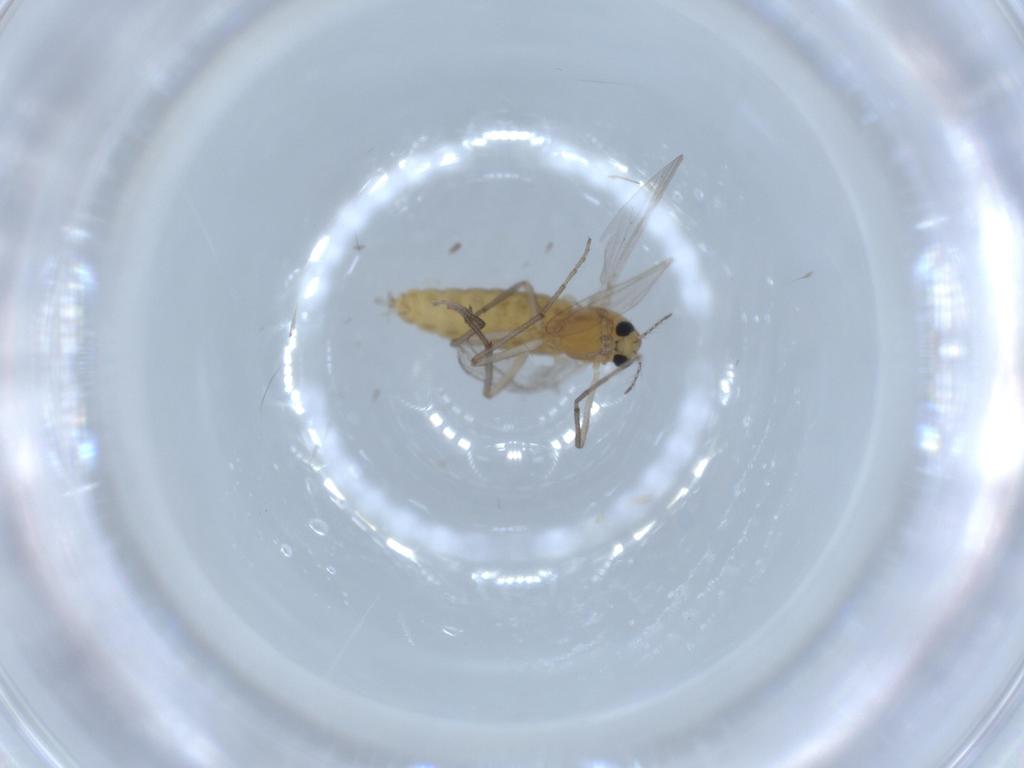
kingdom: Animalia
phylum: Arthropoda
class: Insecta
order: Diptera
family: Chironomidae
